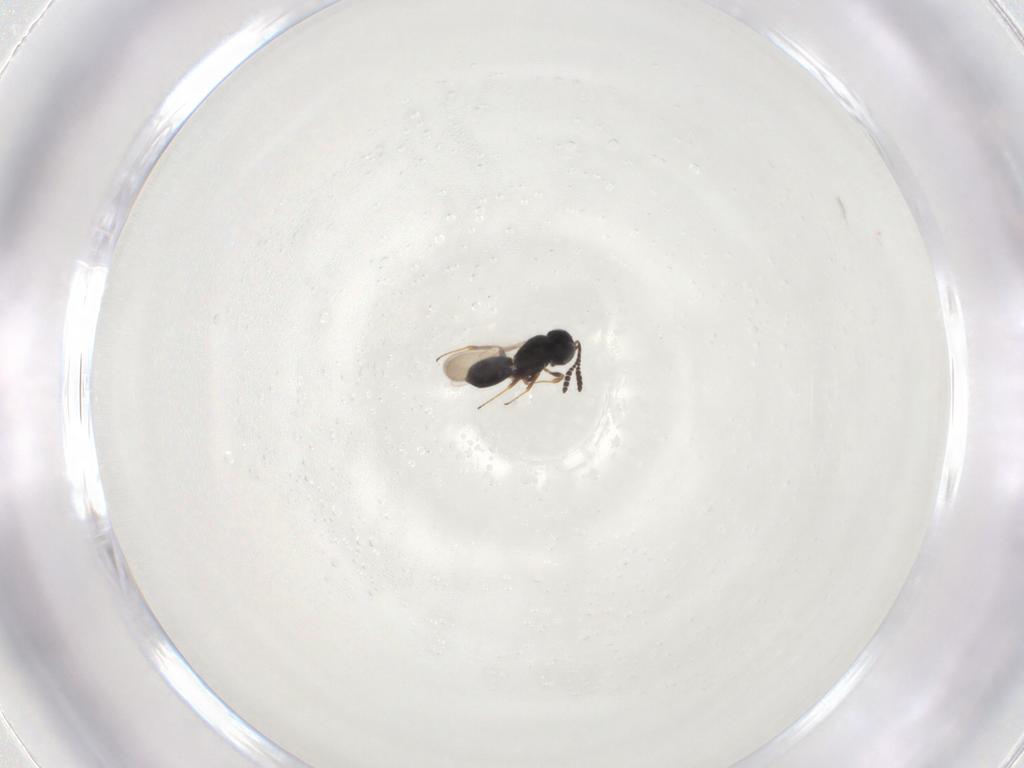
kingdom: Animalia
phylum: Arthropoda
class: Insecta
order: Hymenoptera
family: Scelionidae
